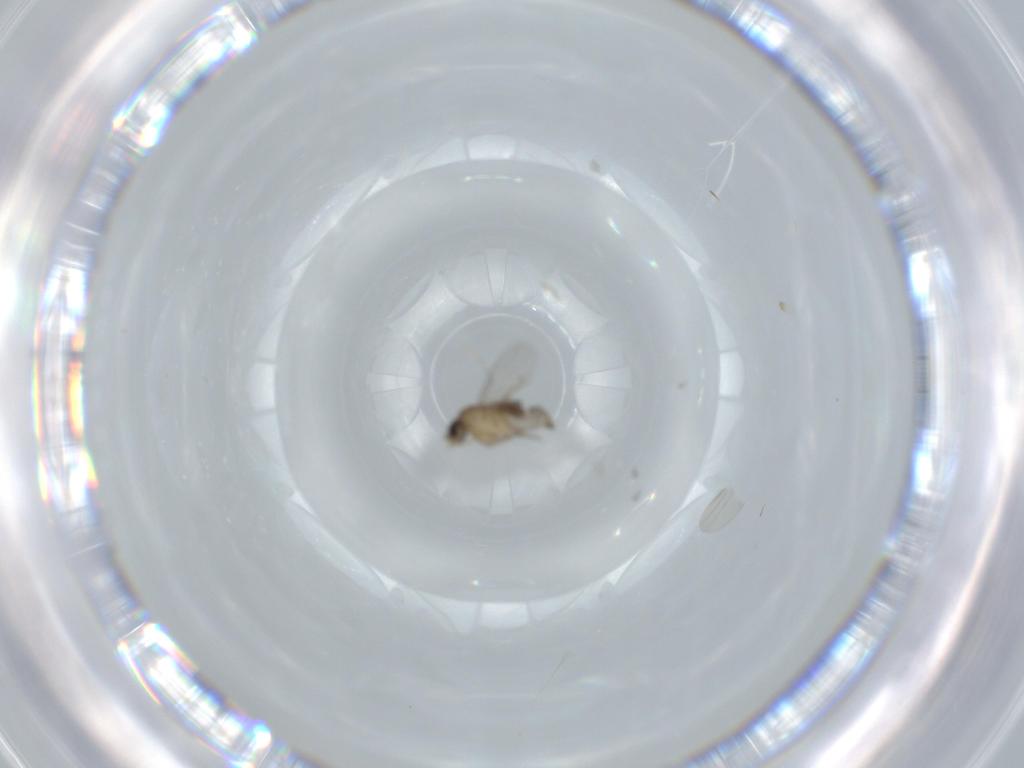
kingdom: Animalia
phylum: Arthropoda
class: Insecta
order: Diptera
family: Phoridae
